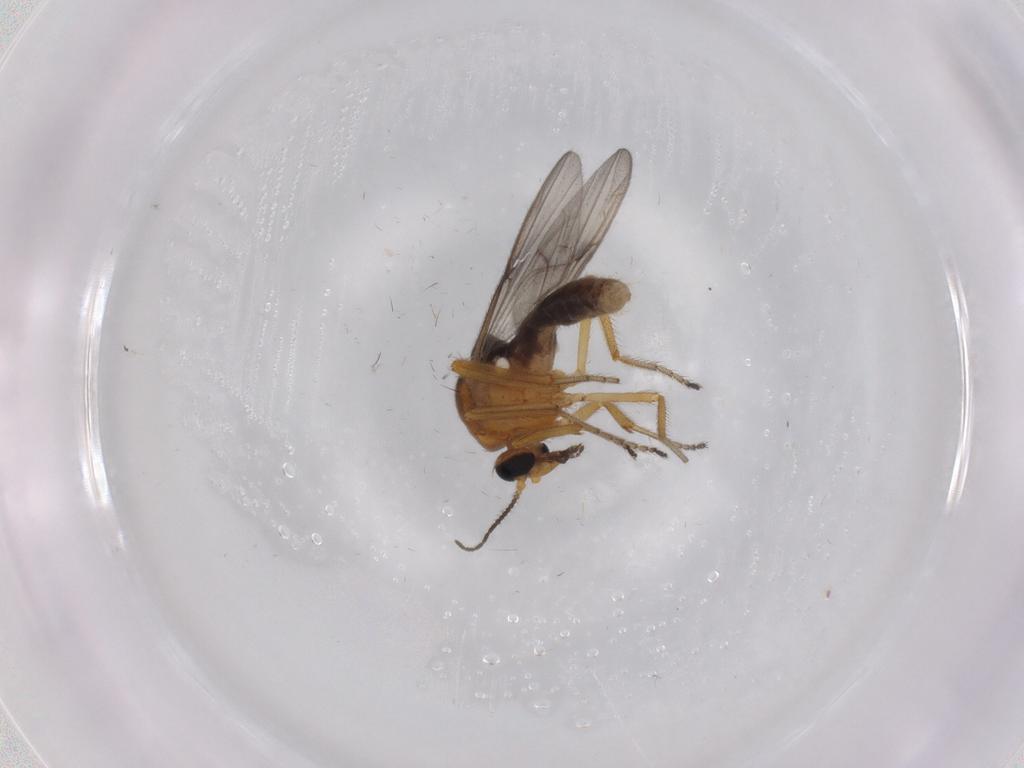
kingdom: Animalia
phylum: Arthropoda
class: Insecta
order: Diptera
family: Ceratopogonidae
